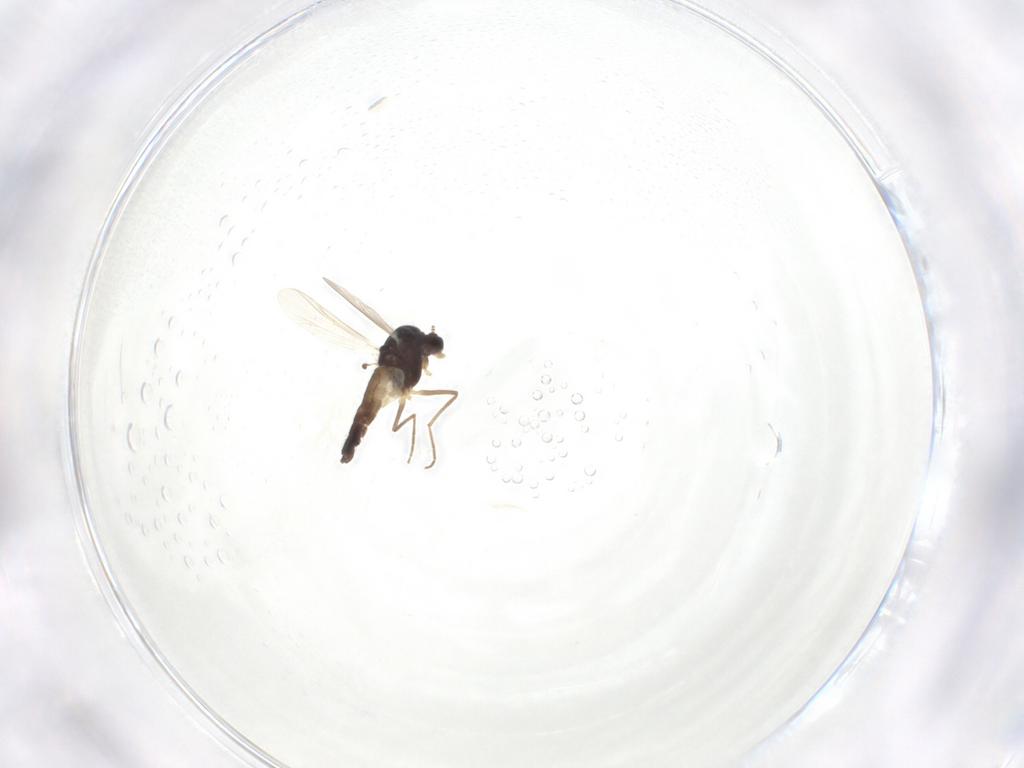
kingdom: Animalia
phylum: Arthropoda
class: Insecta
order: Diptera
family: Chironomidae
